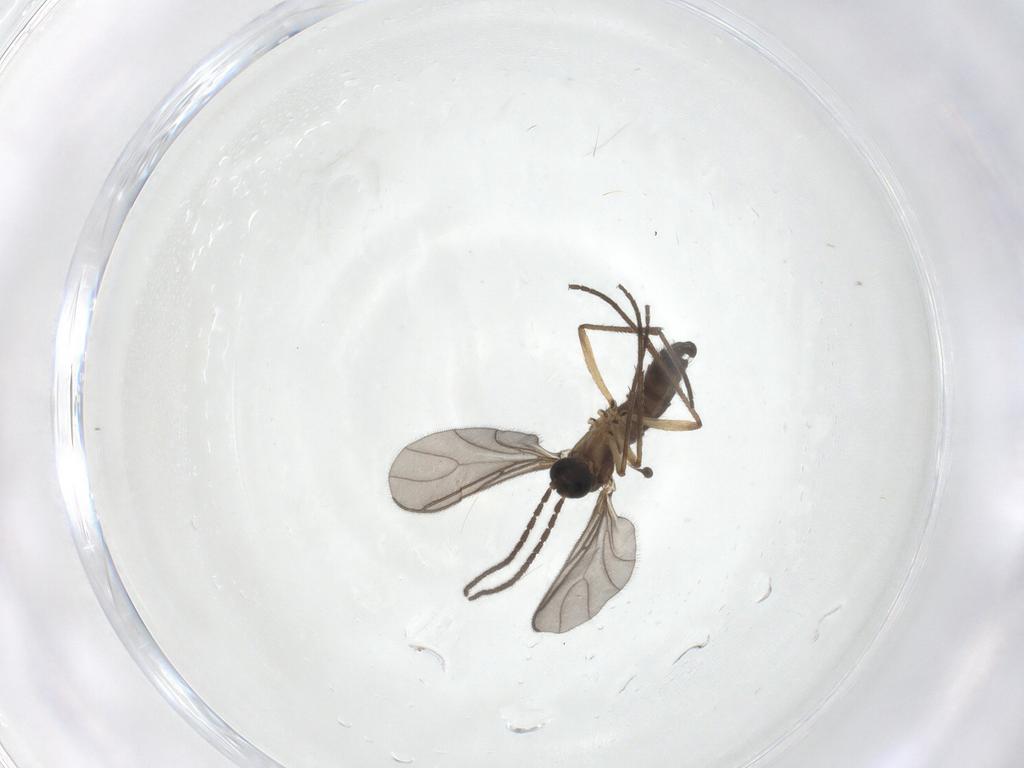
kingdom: Animalia
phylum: Arthropoda
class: Insecta
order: Diptera
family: Sciaridae
